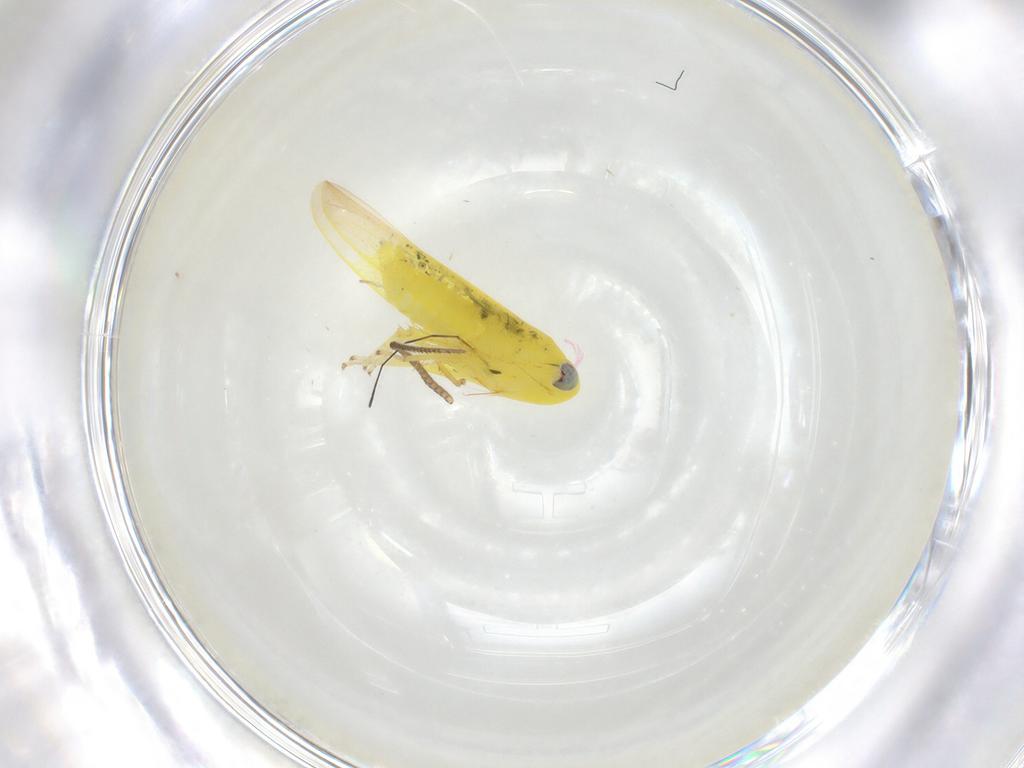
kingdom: Animalia
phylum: Arthropoda
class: Insecta
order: Hemiptera
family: Cicadellidae
